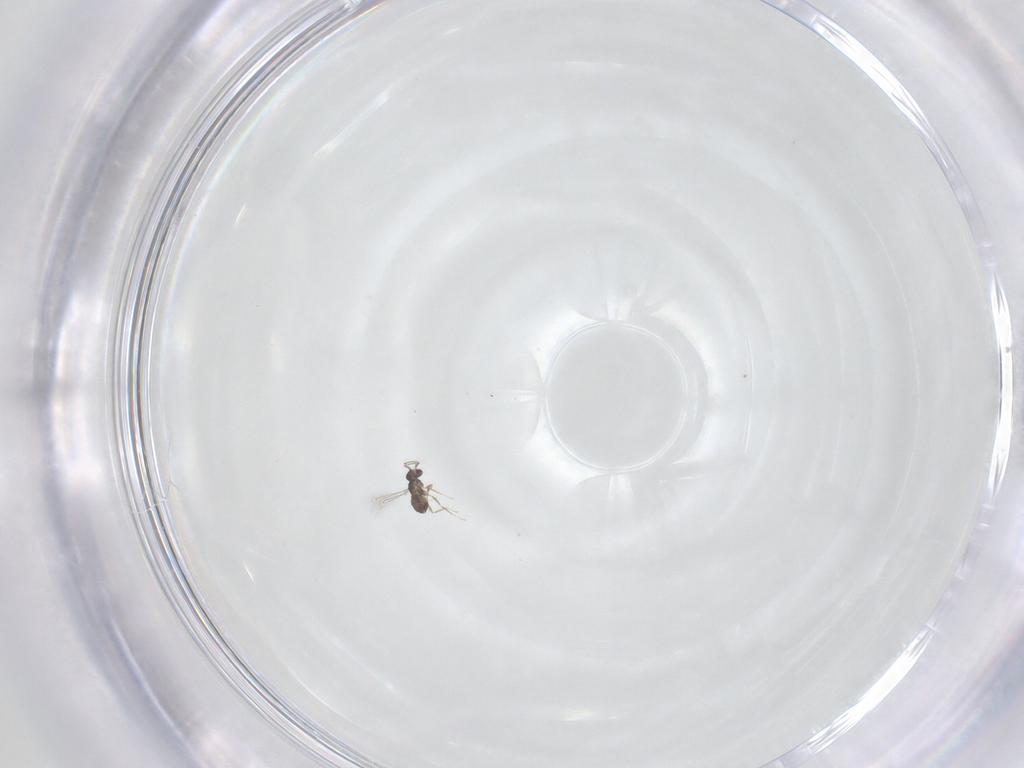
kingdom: Animalia
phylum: Arthropoda
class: Insecta
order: Hymenoptera
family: Mymaridae
